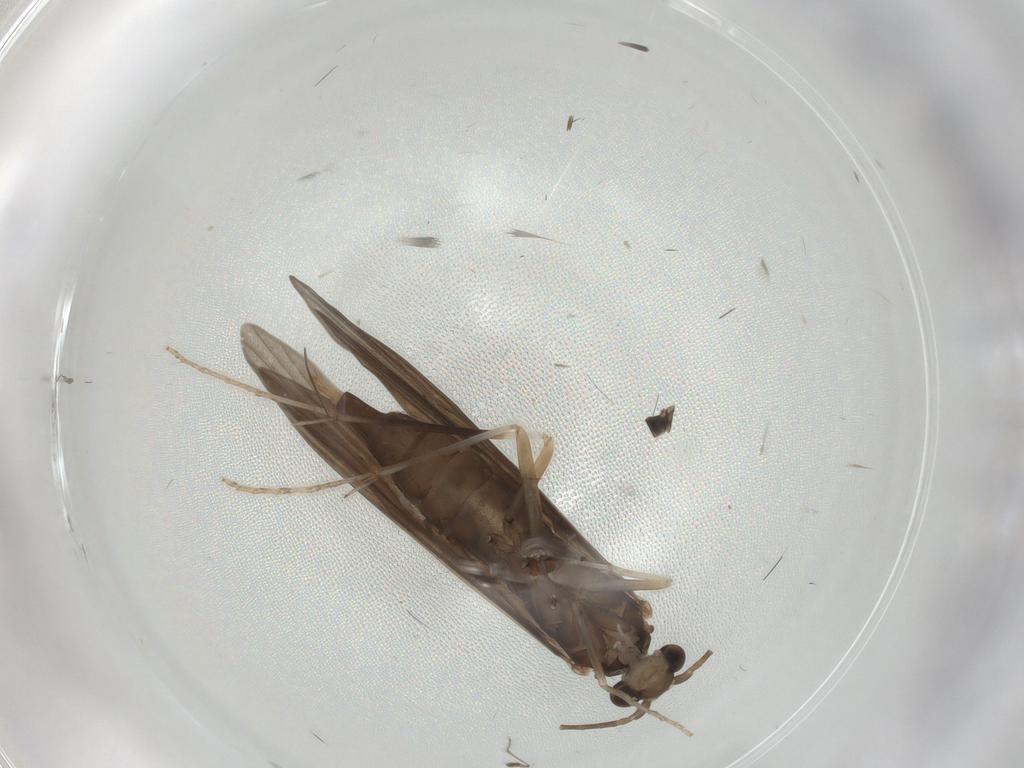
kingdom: Animalia
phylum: Arthropoda
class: Insecta
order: Trichoptera
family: Xiphocentronidae
